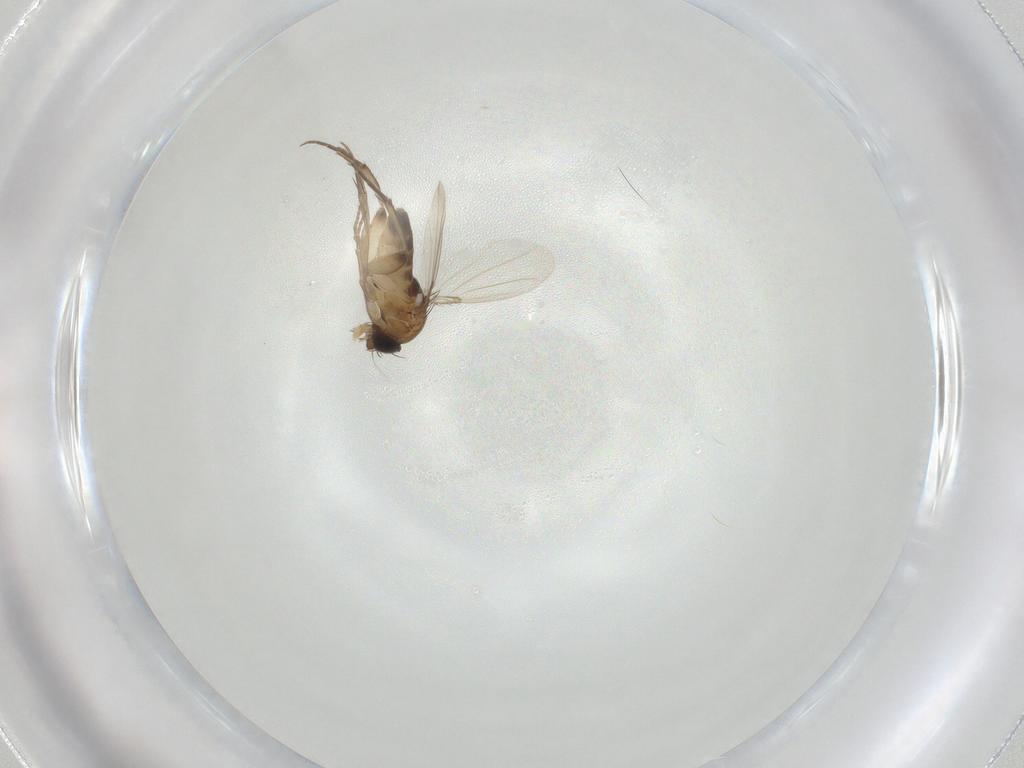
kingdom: Animalia
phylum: Arthropoda
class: Insecta
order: Diptera
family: Phoridae
